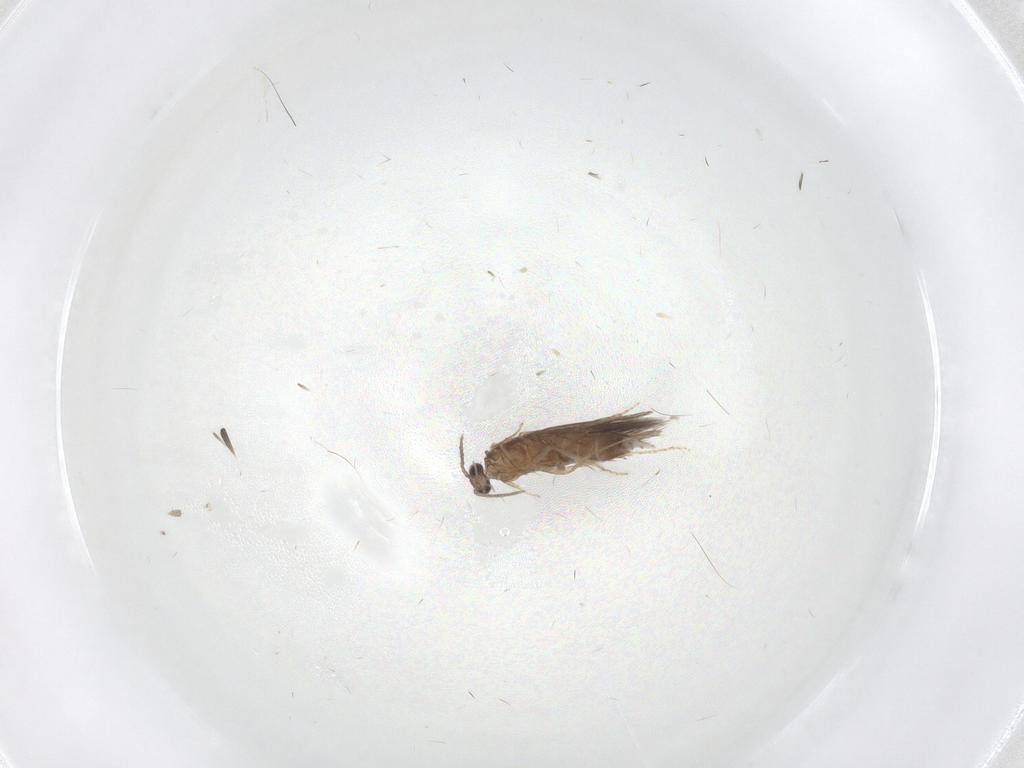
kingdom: Animalia
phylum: Arthropoda
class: Insecta
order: Trichoptera
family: Hydroptilidae
